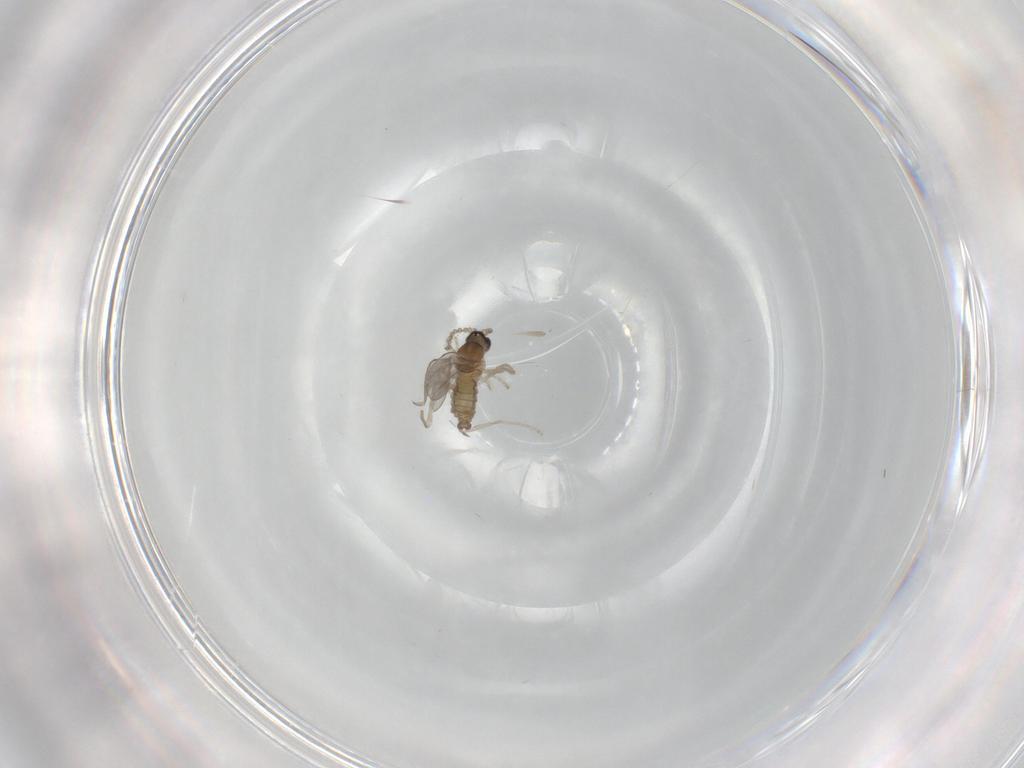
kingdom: Animalia
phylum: Arthropoda
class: Insecta
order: Diptera
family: Cecidomyiidae
